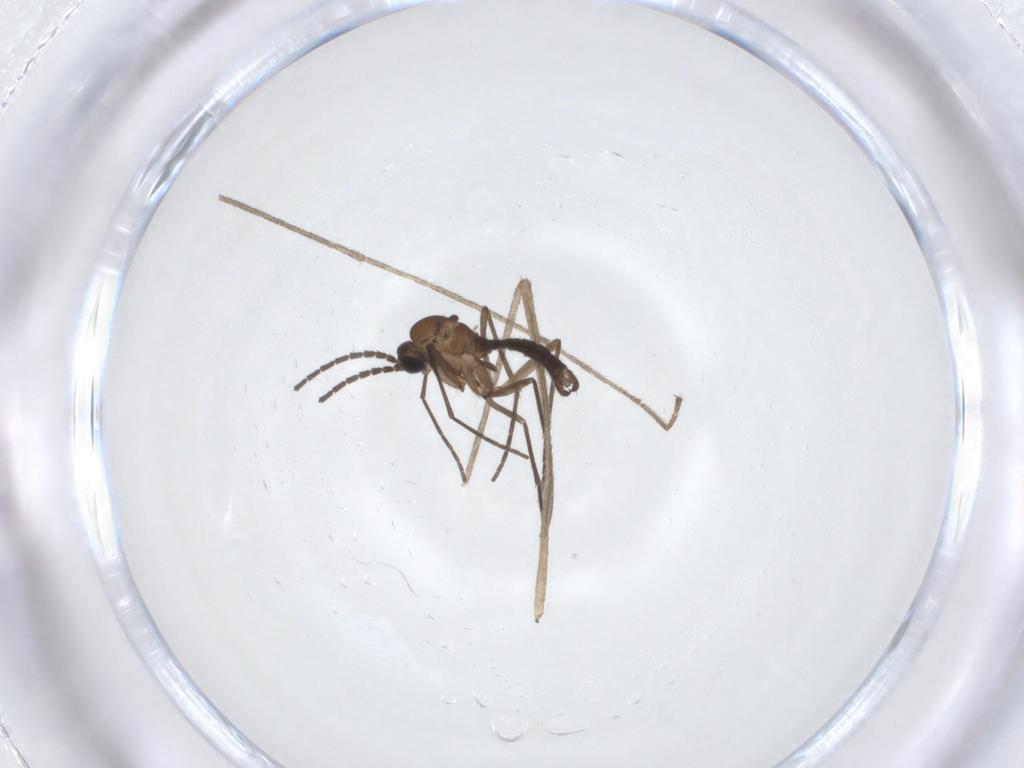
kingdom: Animalia
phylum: Arthropoda
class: Insecta
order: Diptera
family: Sciaridae
